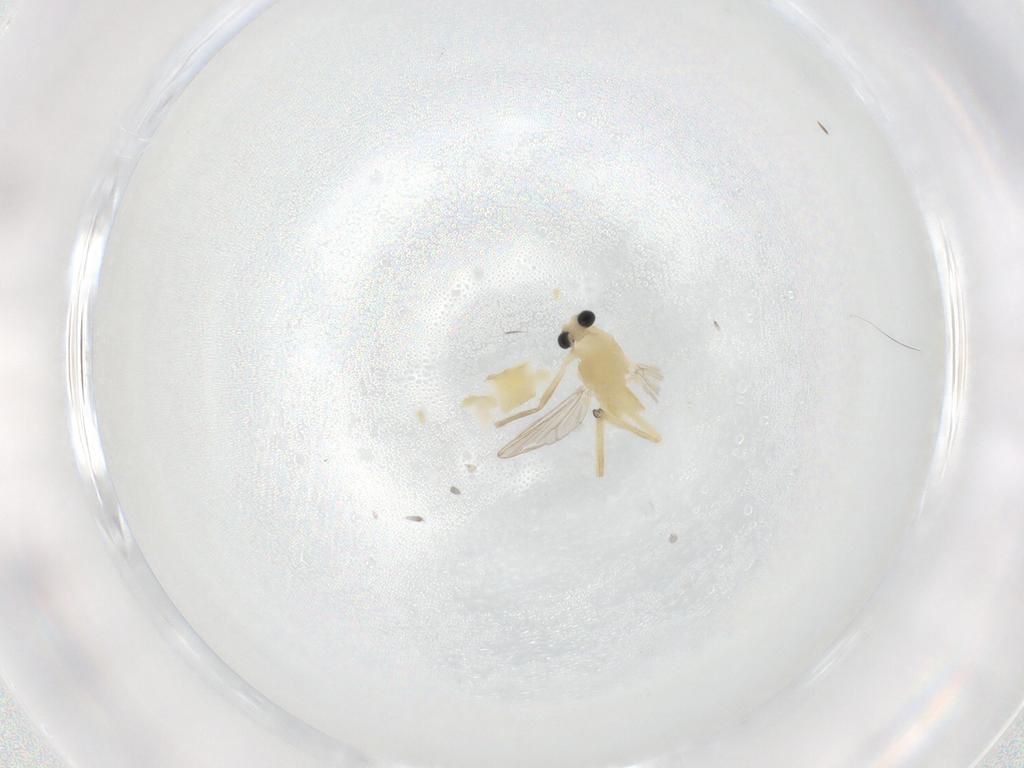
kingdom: Animalia
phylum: Arthropoda
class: Insecta
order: Diptera
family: Chironomidae
